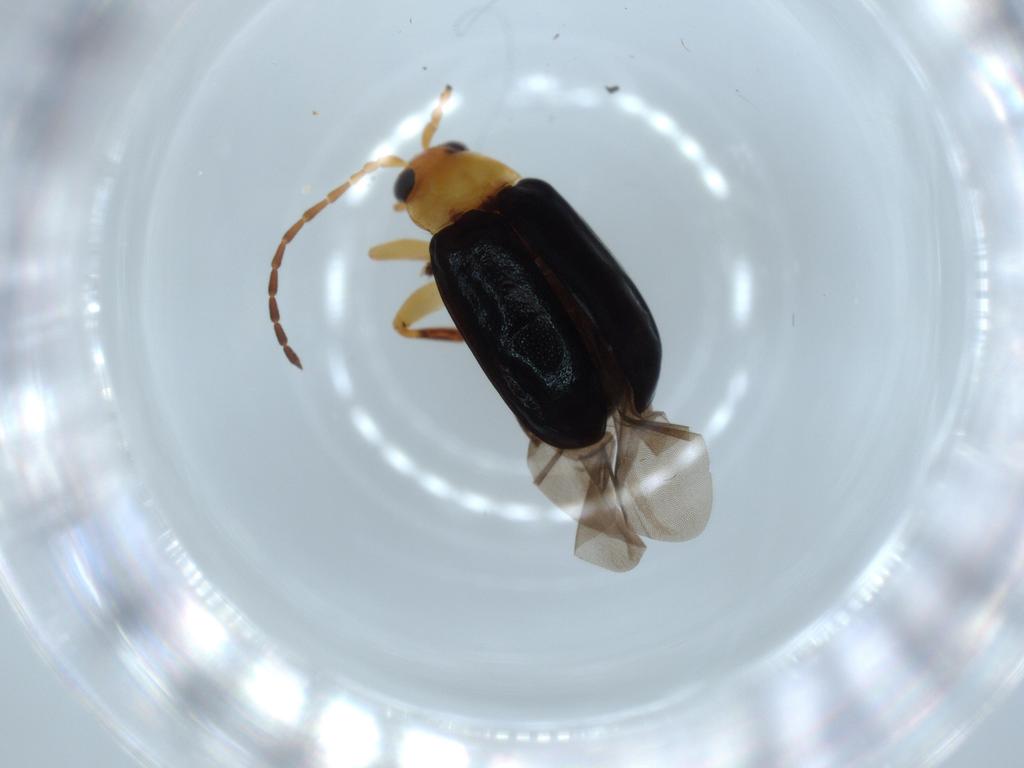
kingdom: Animalia
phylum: Arthropoda
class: Insecta
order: Coleoptera
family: Chrysomelidae
